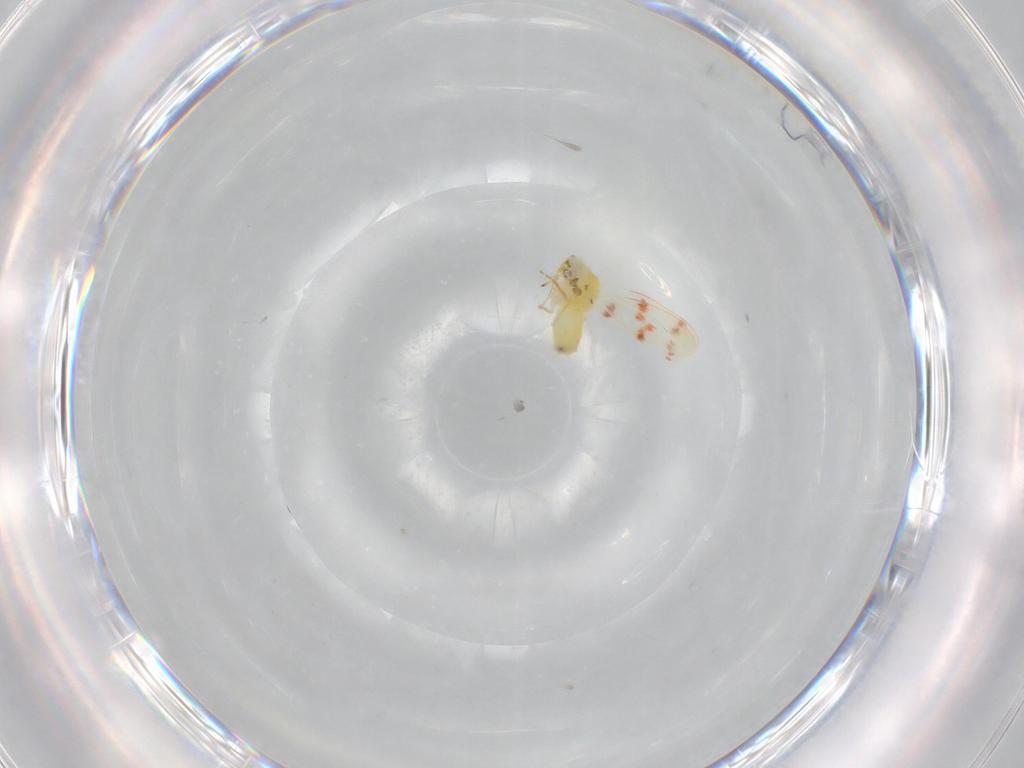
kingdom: Animalia
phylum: Arthropoda
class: Insecta
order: Hemiptera
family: Aleyrodidae
